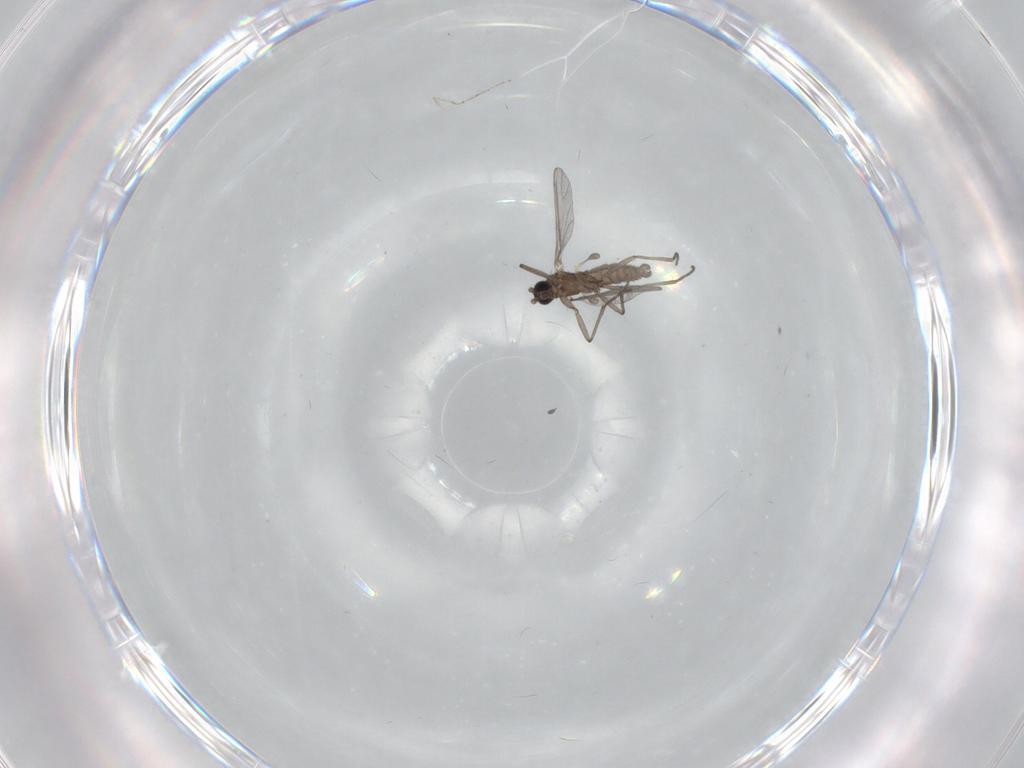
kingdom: Animalia
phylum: Arthropoda
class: Insecta
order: Diptera
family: Sciaridae
